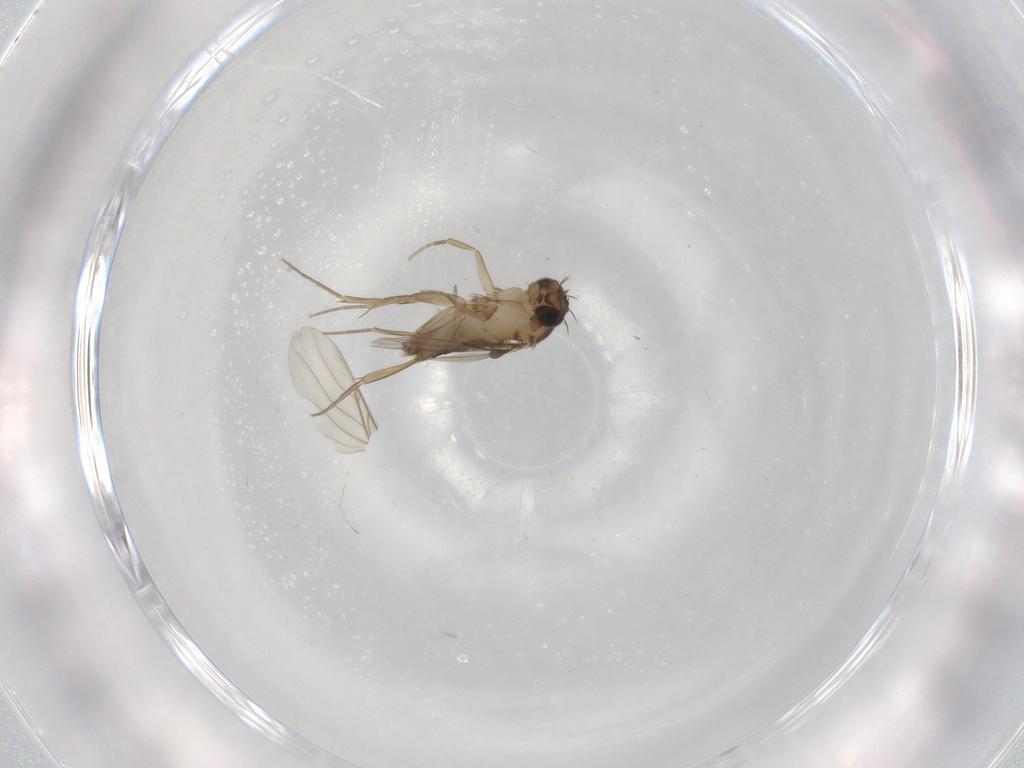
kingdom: Animalia
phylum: Arthropoda
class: Insecta
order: Diptera
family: Phoridae
